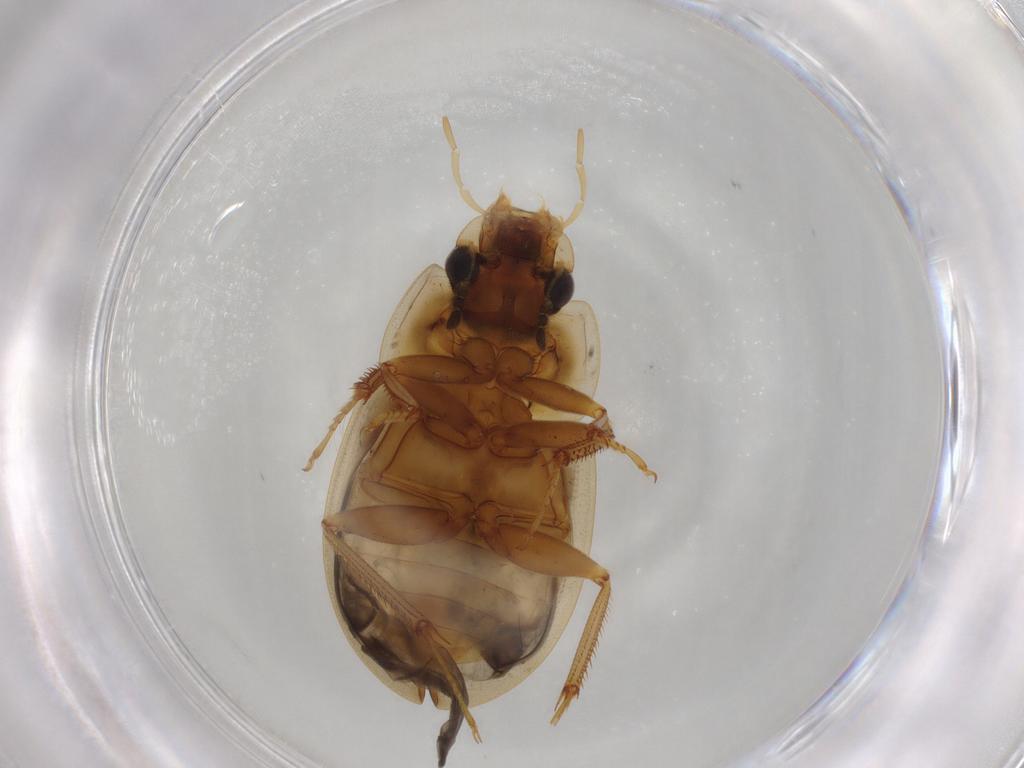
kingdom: Animalia
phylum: Arthropoda
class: Insecta
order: Coleoptera
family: Hydrophilidae
